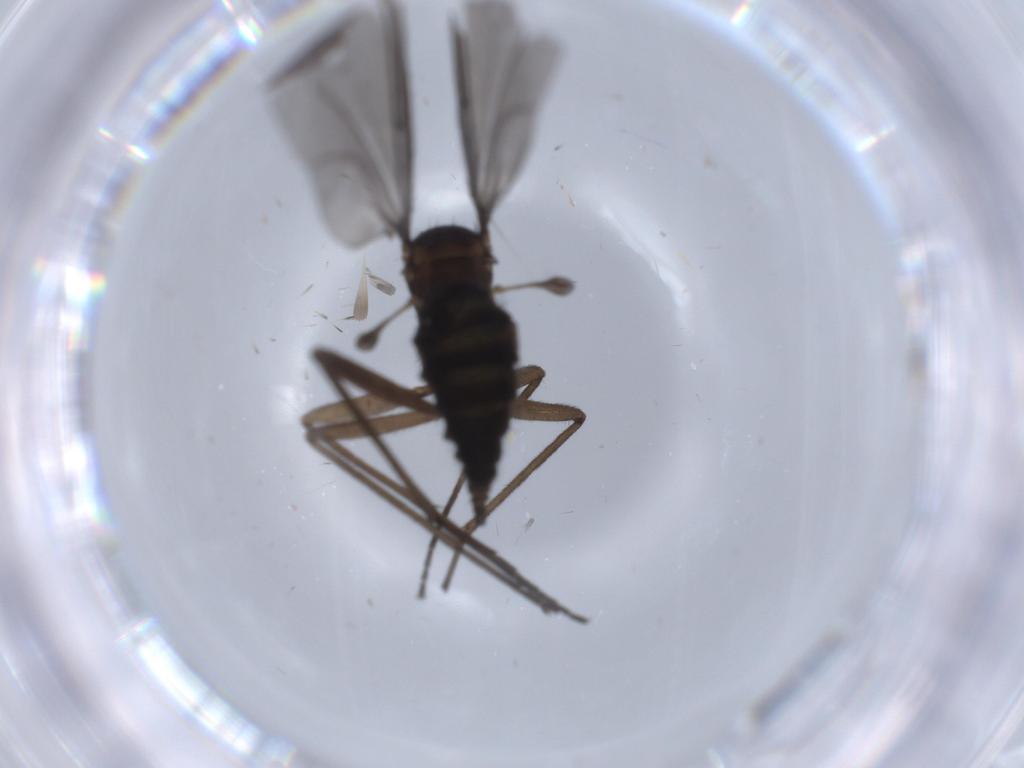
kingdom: Animalia
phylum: Arthropoda
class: Insecta
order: Diptera
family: Sciaridae
